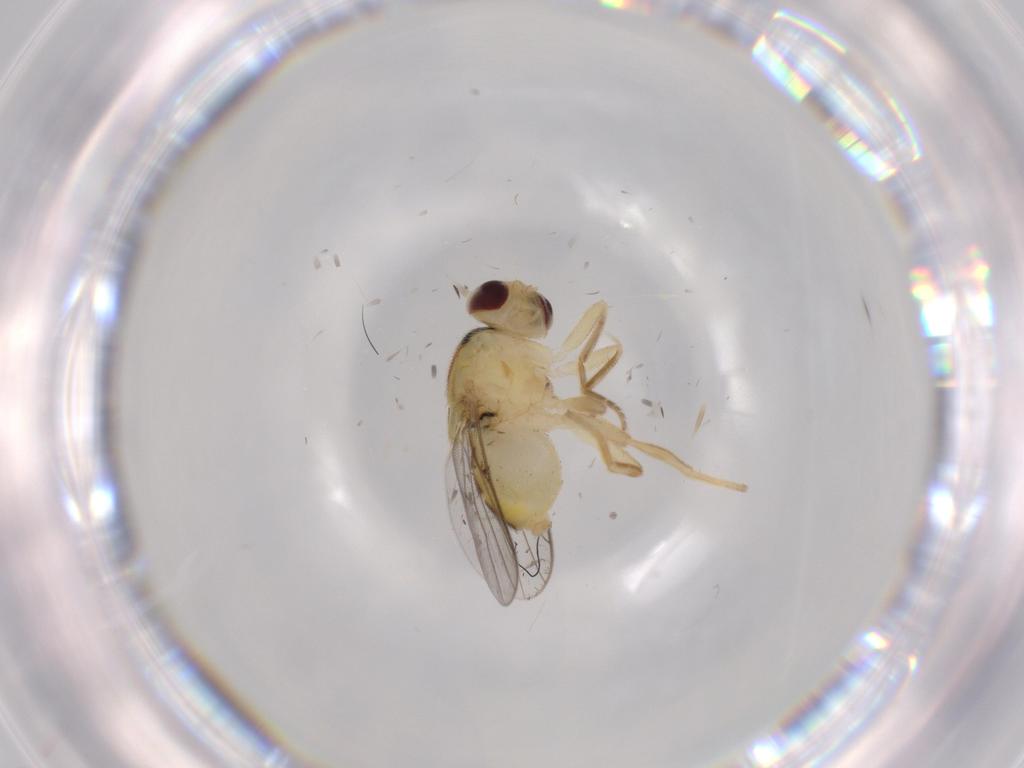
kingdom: Animalia
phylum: Arthropoda
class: Insecta
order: Diptera
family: Chloropidae
